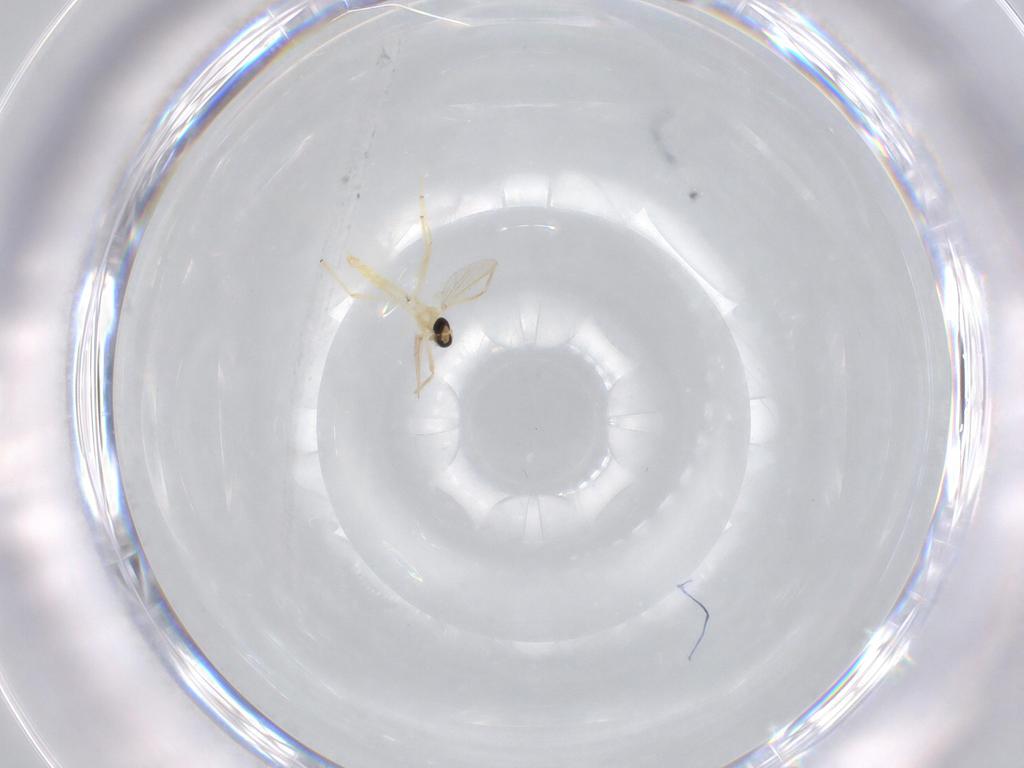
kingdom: Animalia
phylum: Arthropoda
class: Insecta
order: Diptera
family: Chironomidae
